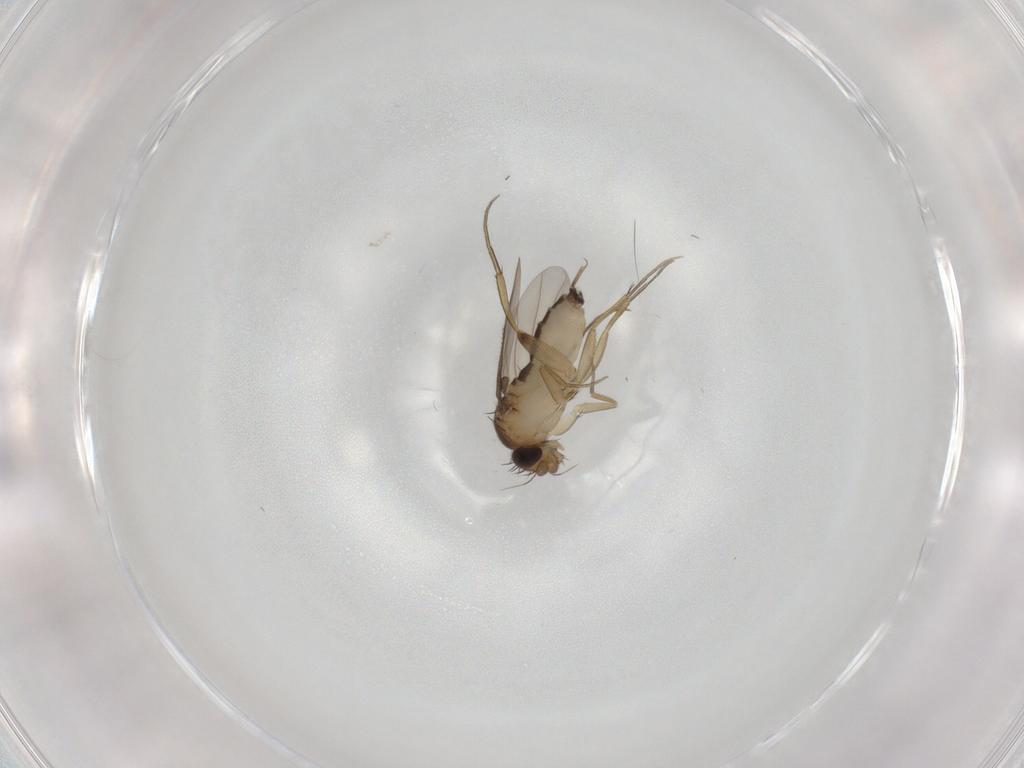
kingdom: Animalia
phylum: Arthropoda
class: Insecta
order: Diptera
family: Phoridae
